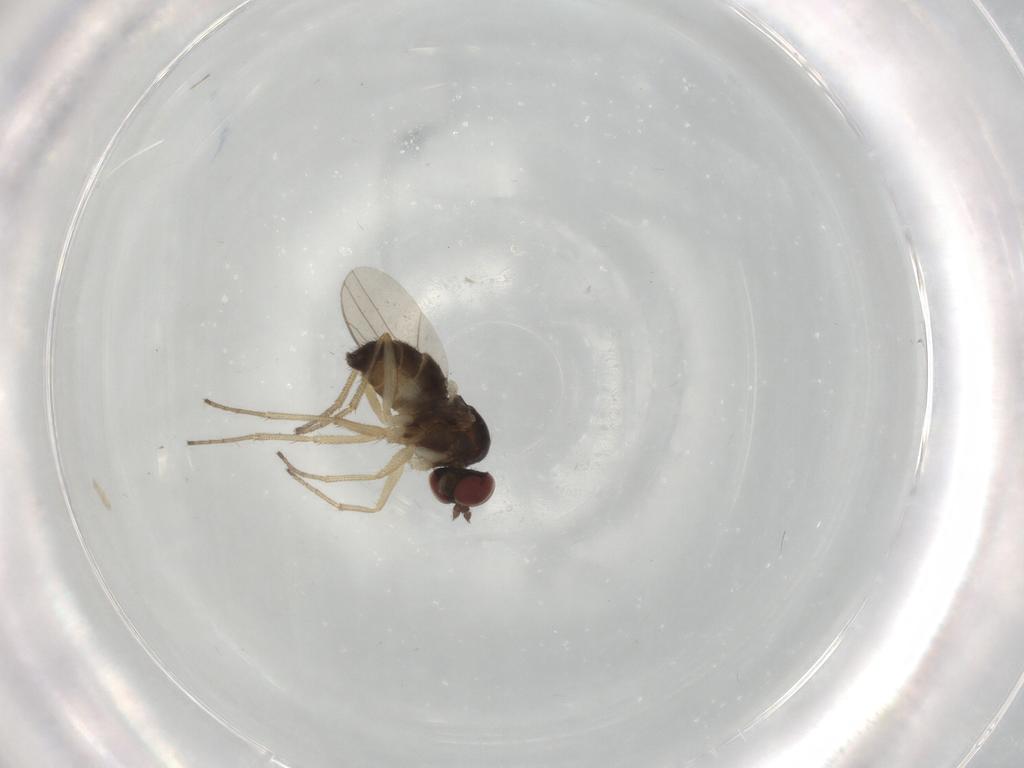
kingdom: Animalia
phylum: Arthropoda
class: Insecta
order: Diptera
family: Dolichopodidae
